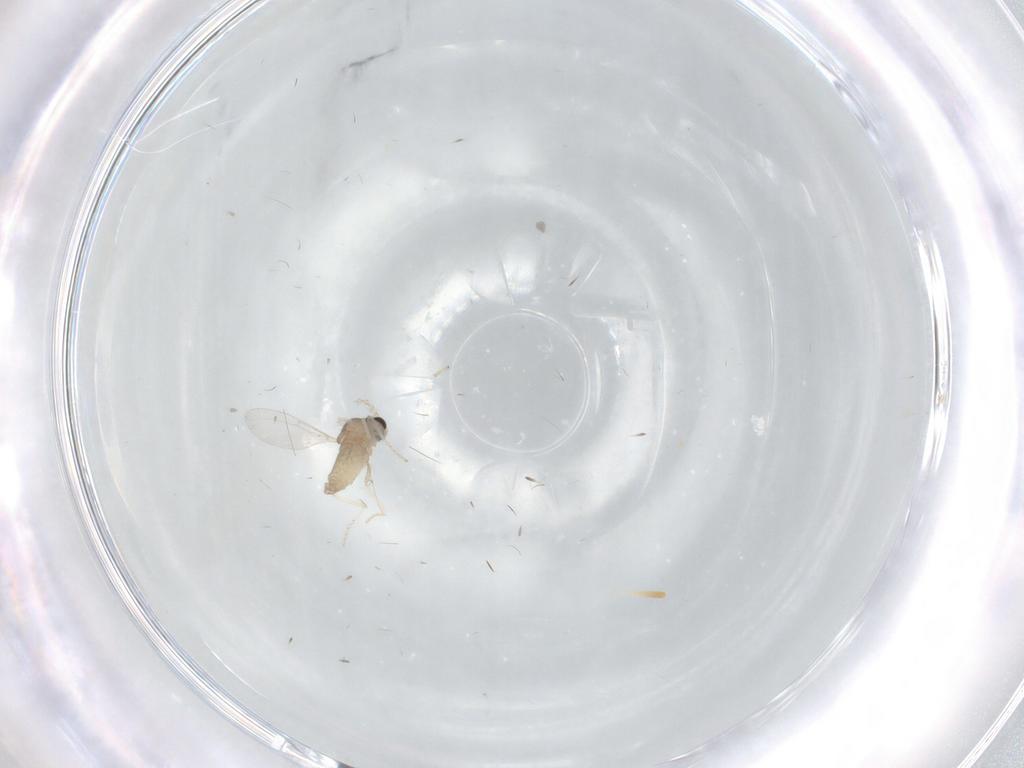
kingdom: Animalia
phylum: Arthropoda
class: Insecta
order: Diptera
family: Cecidomyiidae
